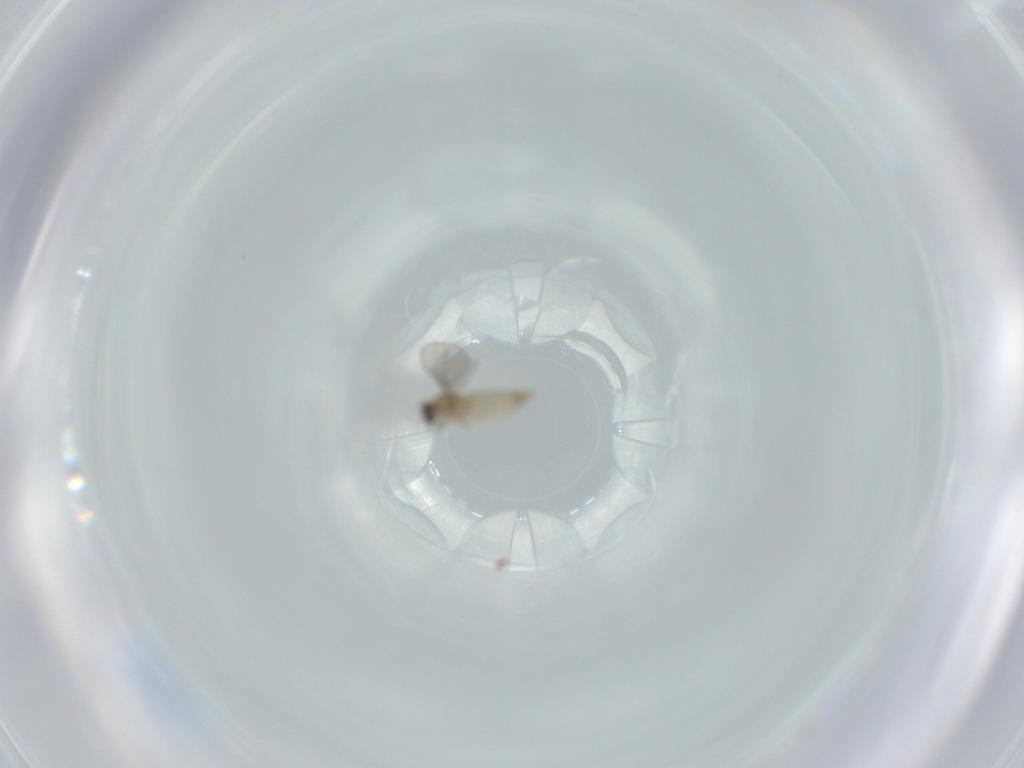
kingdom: Animalia
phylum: Arthropoda
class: Insecta
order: Diptera
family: Cecidomyiidae
